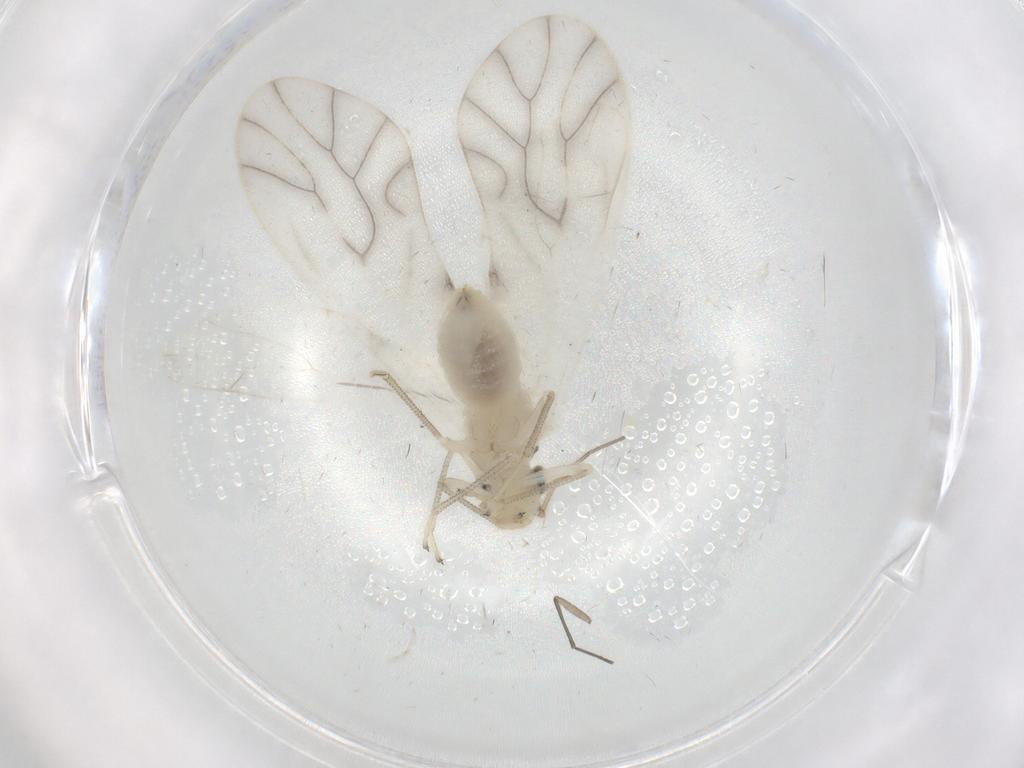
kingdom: Animalia
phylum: Arthropoda
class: Insecta
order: Psocodea
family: Caeciliusidae
